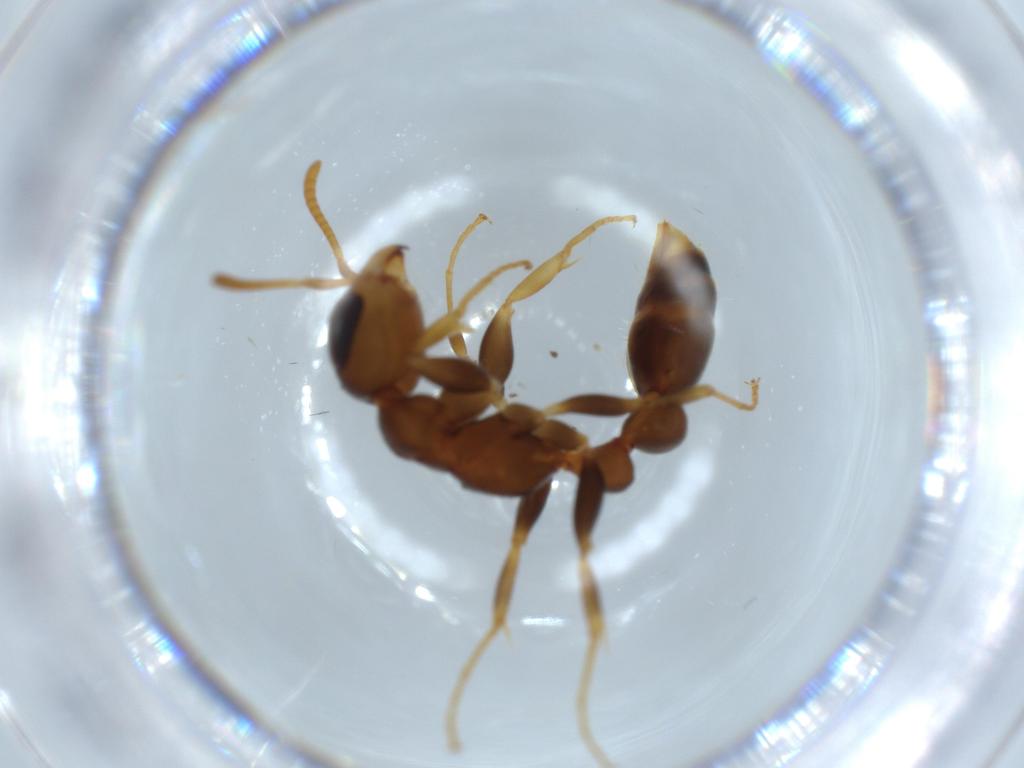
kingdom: Animalia
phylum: Arthropoda
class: Insecta
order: Hymenoptera
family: Formicidae
